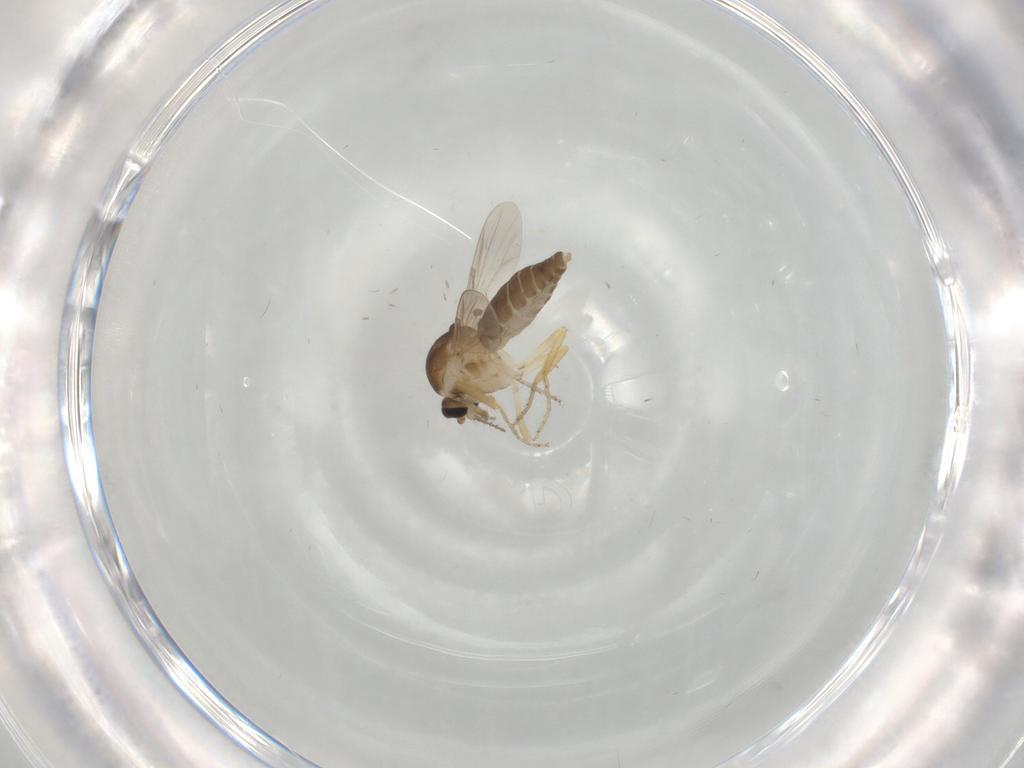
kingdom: Animalia
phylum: Arthropoda
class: Insecta
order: Diptera
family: Ceratopogonidae
